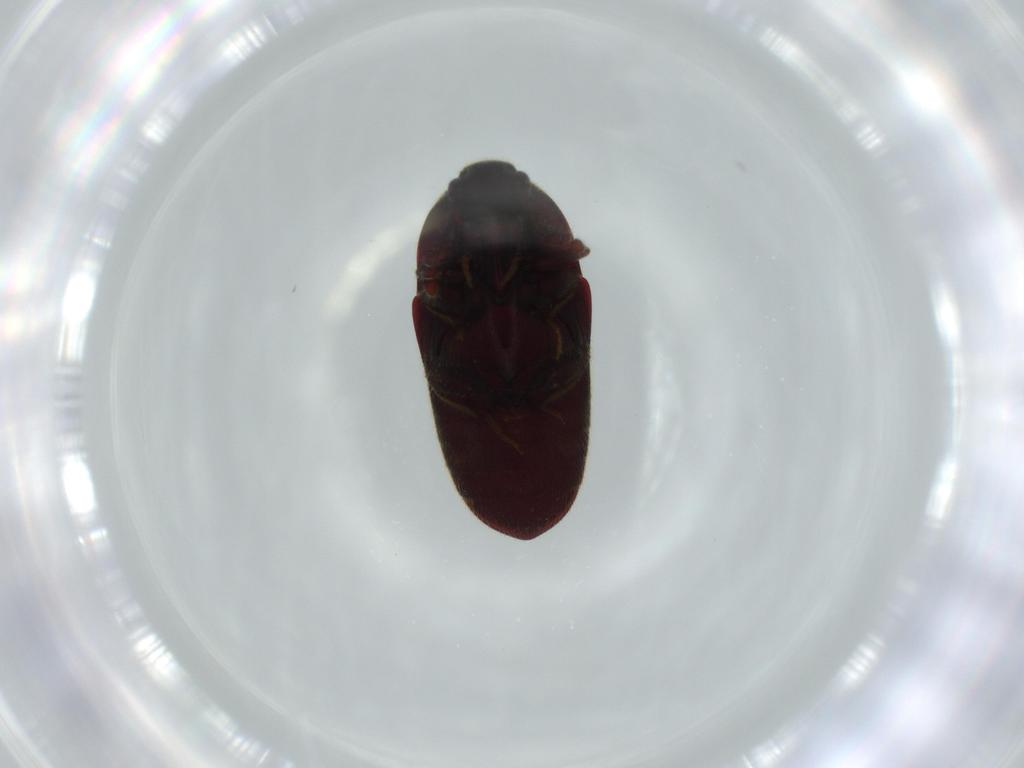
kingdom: Animalia
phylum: Arthropoda
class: Insecta
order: Coleoptera
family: Throscidae
